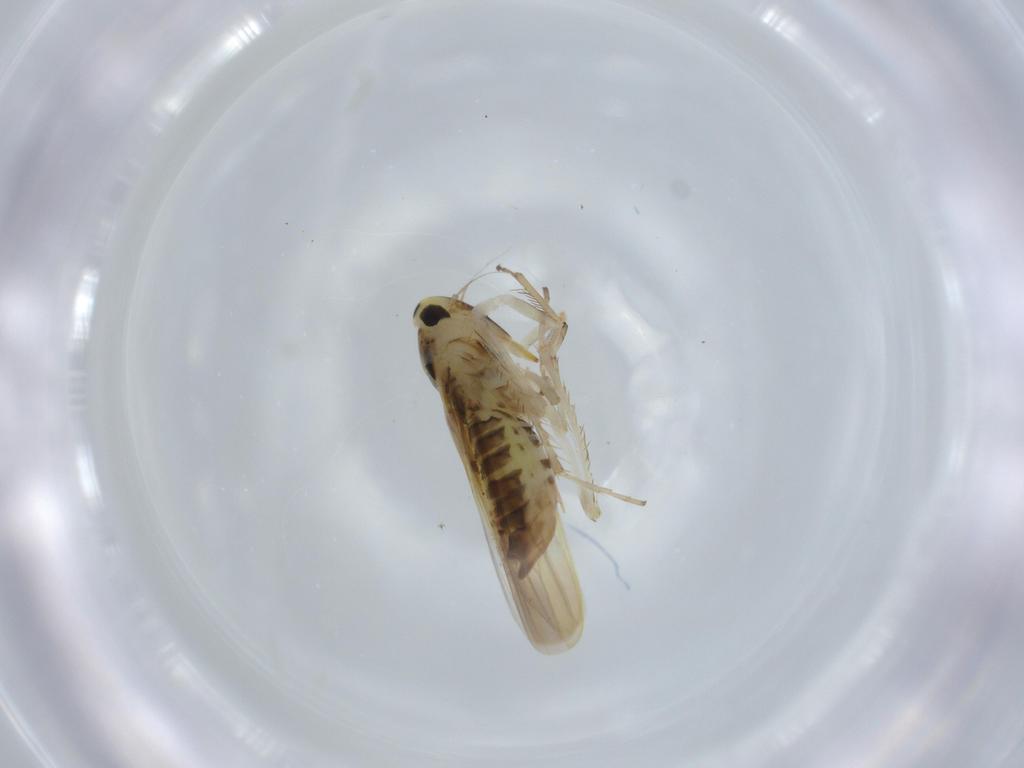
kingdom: Animalia
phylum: Arthropoda
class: Insecta
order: Hemiptera
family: Cicadellidae
